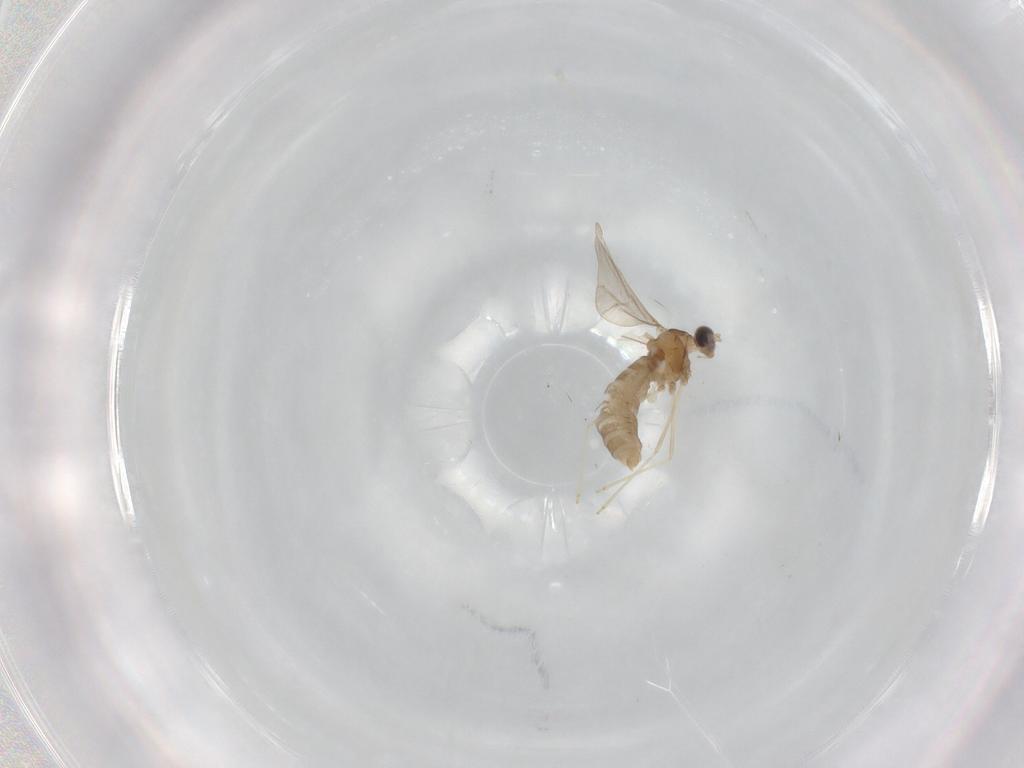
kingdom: Animalia
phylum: Arthropoda
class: Insecta
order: Diptera
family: Cecidomyiidae
